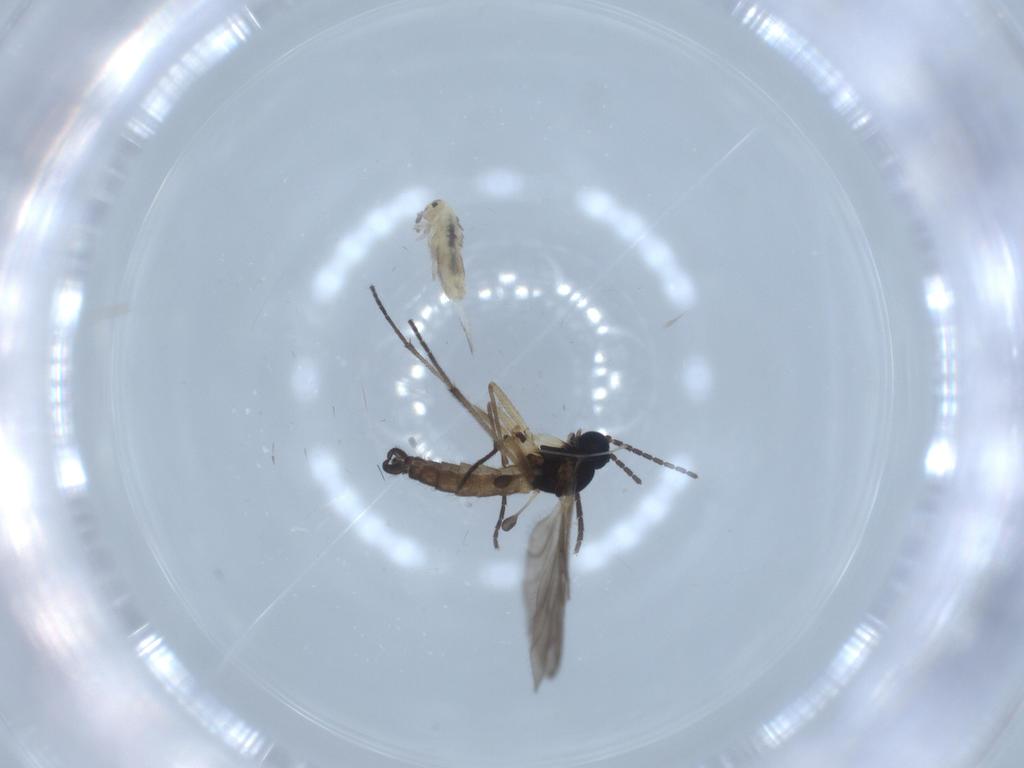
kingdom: Animalia
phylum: Arthropoda
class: Insecta
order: Diptera
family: Sciaridae
